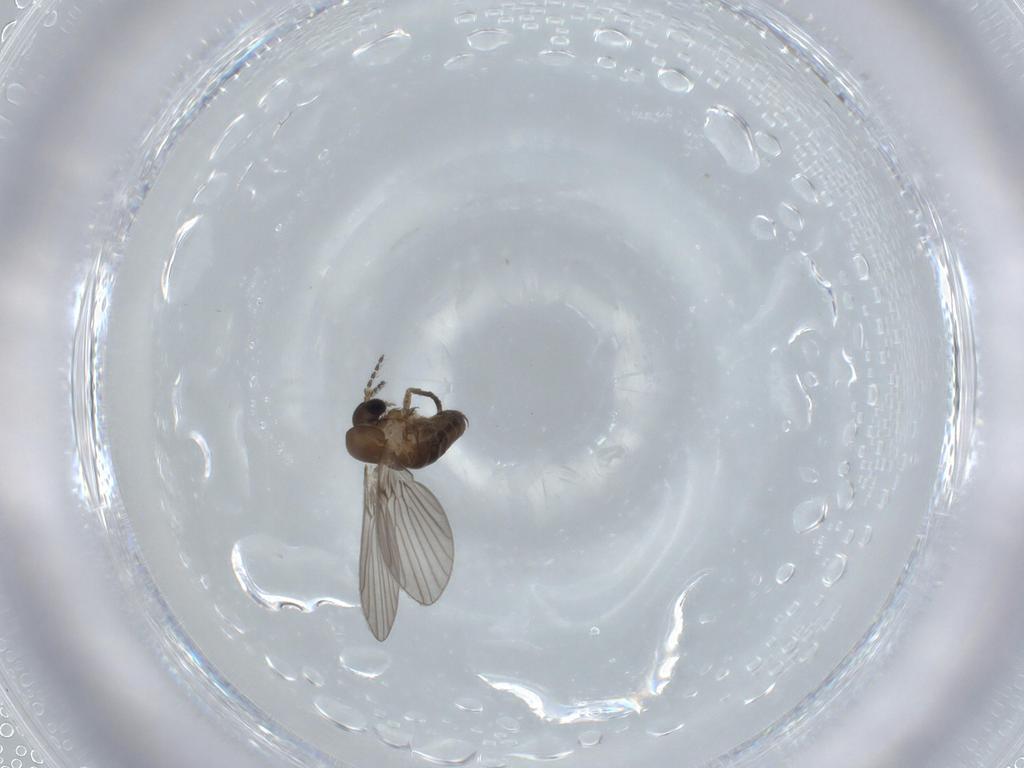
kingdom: Animalia
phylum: Arthropoda
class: Insecta
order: Diptera
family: Psychodidae
